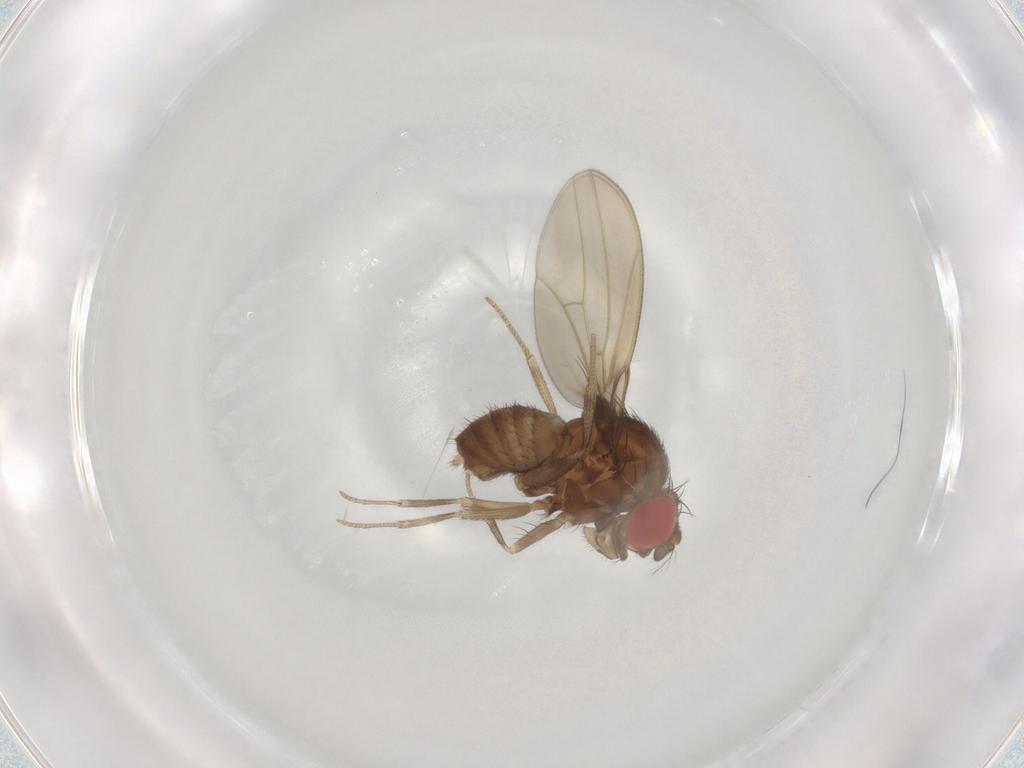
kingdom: Animalia
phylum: Arthropoda
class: Insecta
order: Diptera
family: Drosophilidae
